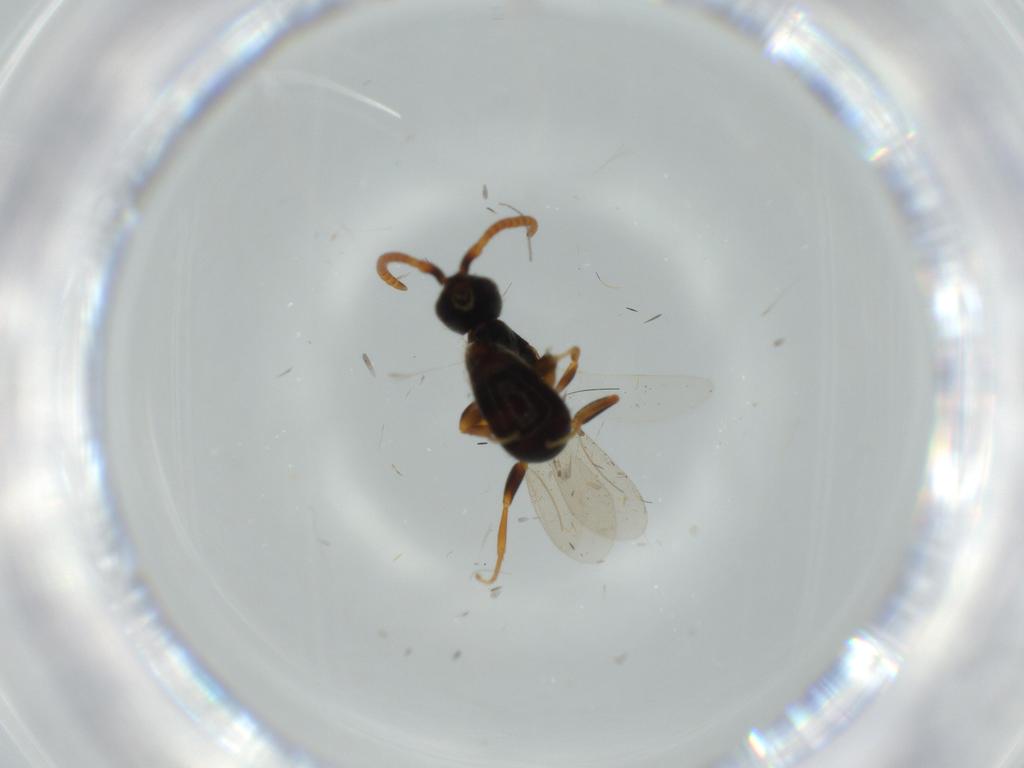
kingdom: Animalia
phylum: Arthropoda
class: Insecta
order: Hymenoptera
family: Bethylidae
